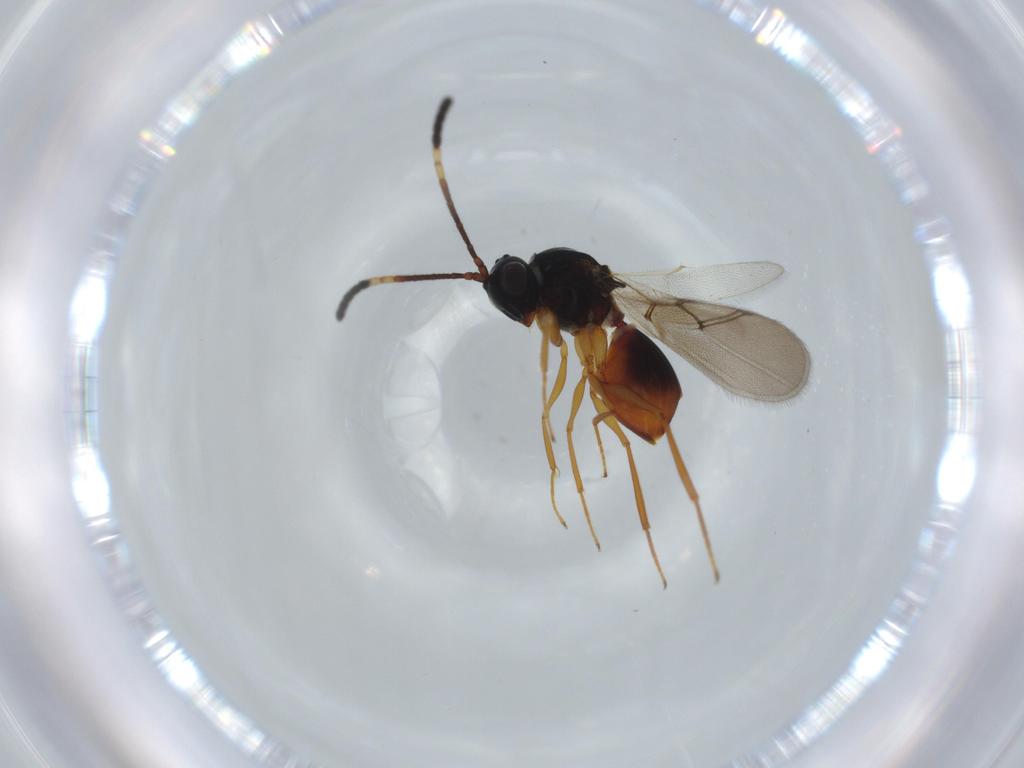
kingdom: Animalia
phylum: Arthropoda
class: Insecta
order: Hymenoptera
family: Figitidae
